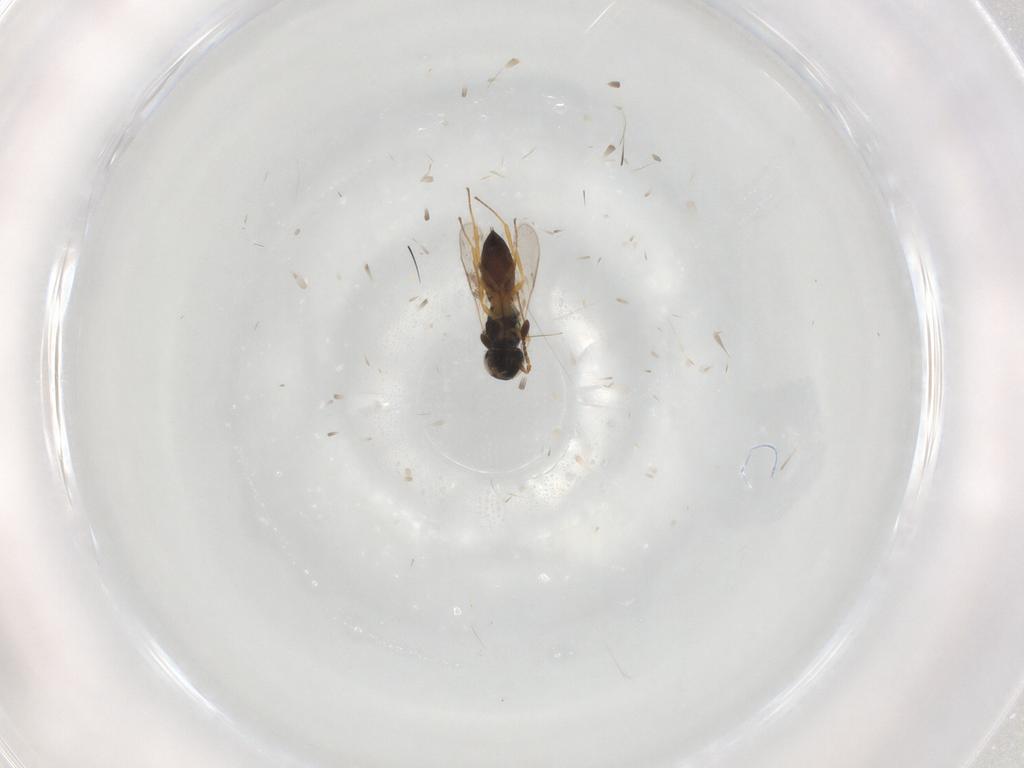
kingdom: Animalia
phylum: Arthropoda
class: Insecta
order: Hymenoptera
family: Scelionidae
